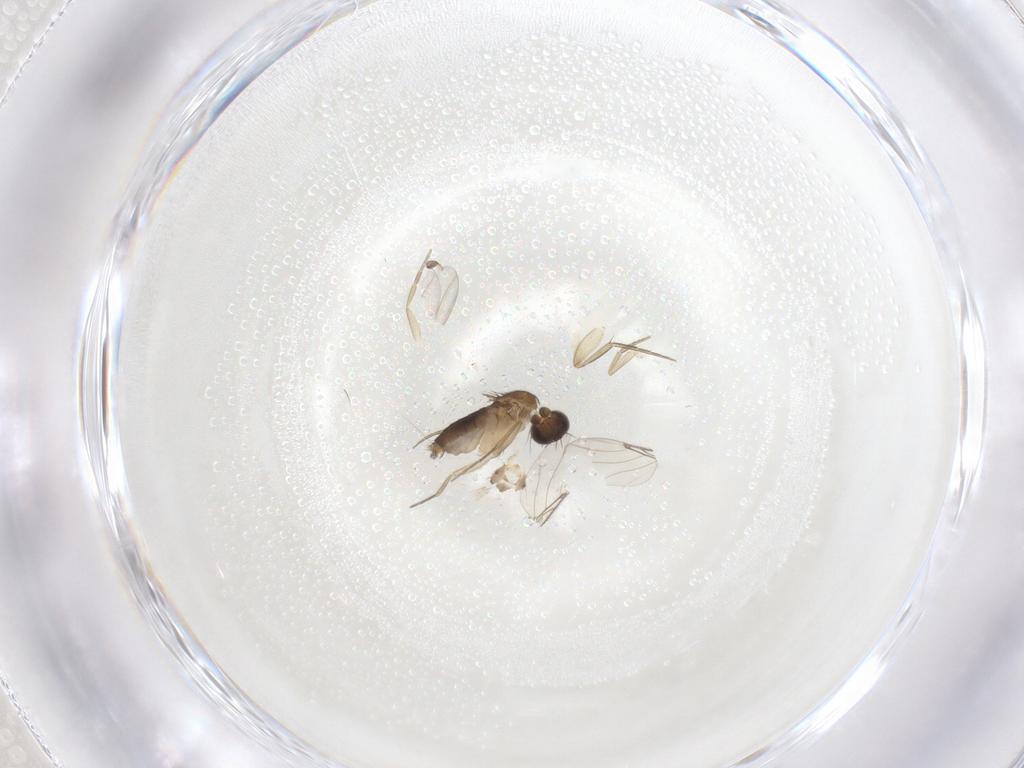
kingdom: Animalia
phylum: Arthropoda
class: Insecta
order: Diptera
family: Phoridae
